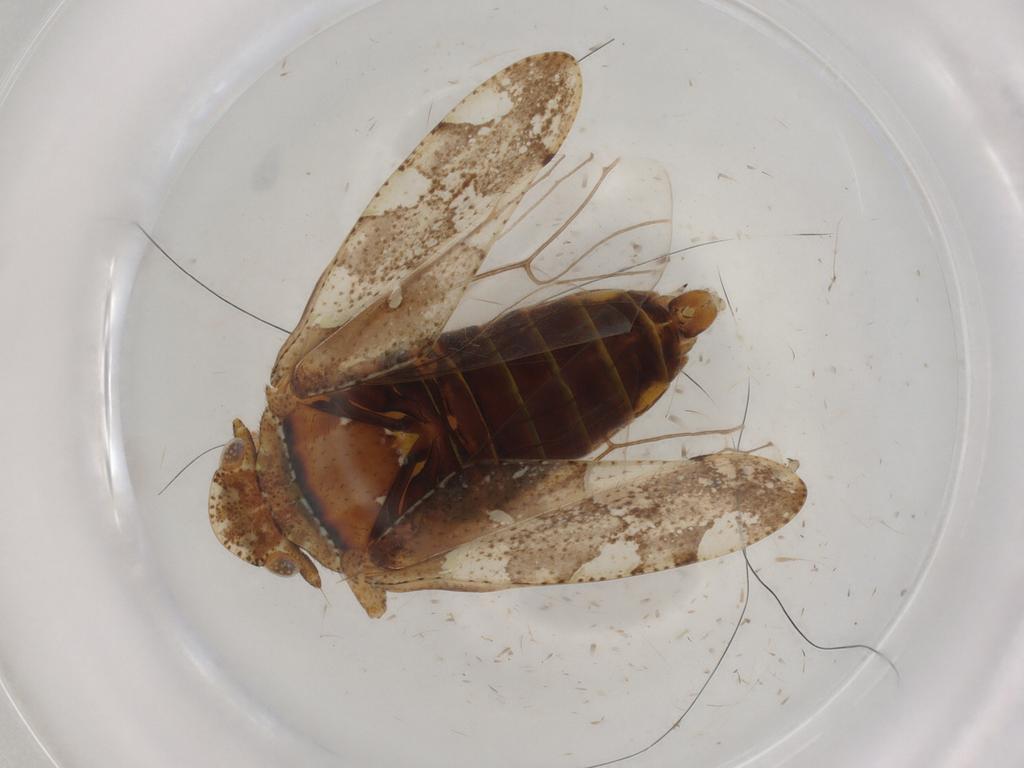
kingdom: Animalia
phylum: Arthropoda
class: Insecta
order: Hemiptera
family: Tettigometridae
